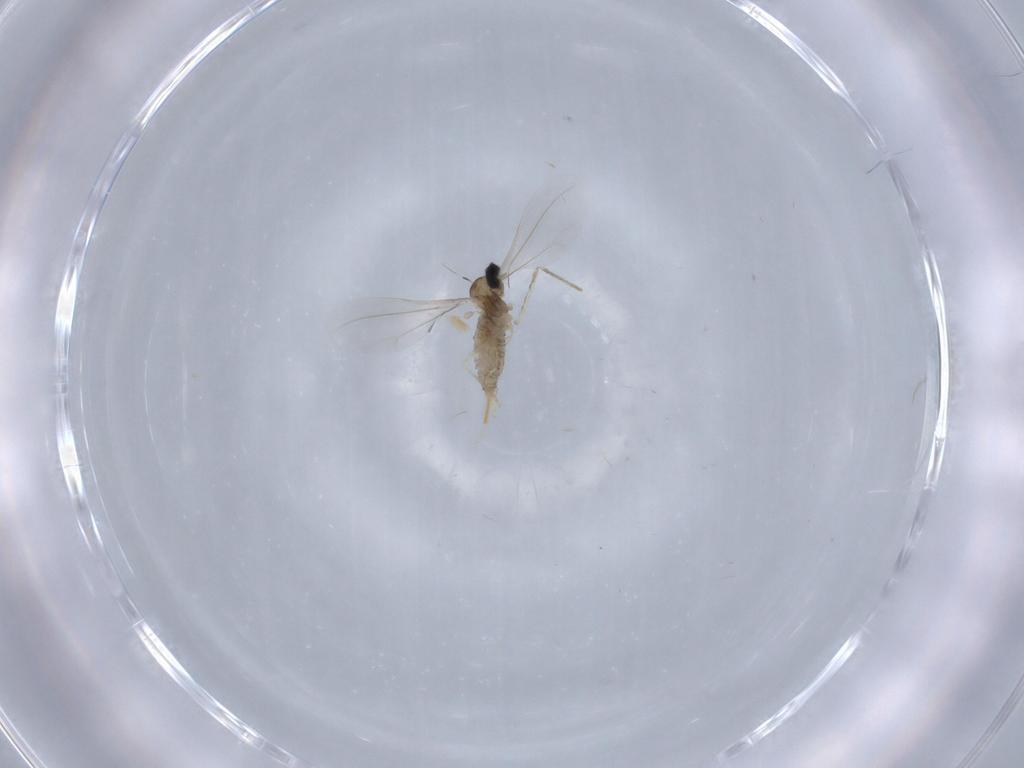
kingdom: Animalia
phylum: Arthropoda
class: Insecta
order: Diptera
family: Cecidomyiidae
